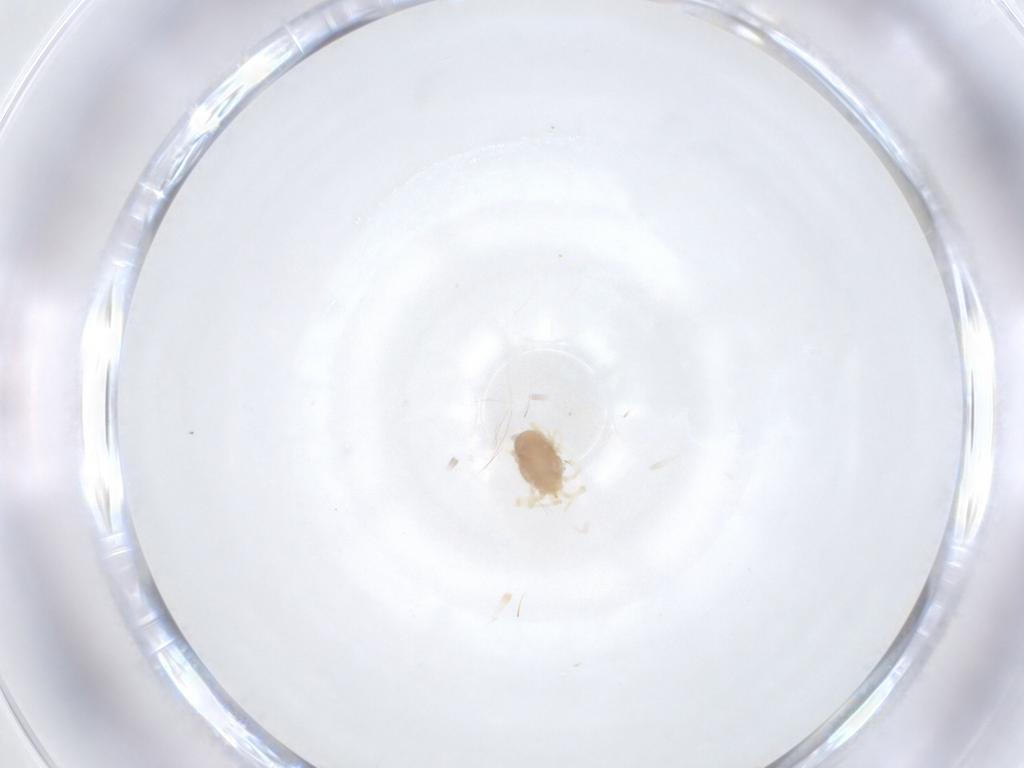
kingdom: Animalia
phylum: Arthropoda
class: Arachnida
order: Trombidiformes
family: Erythraeidae
